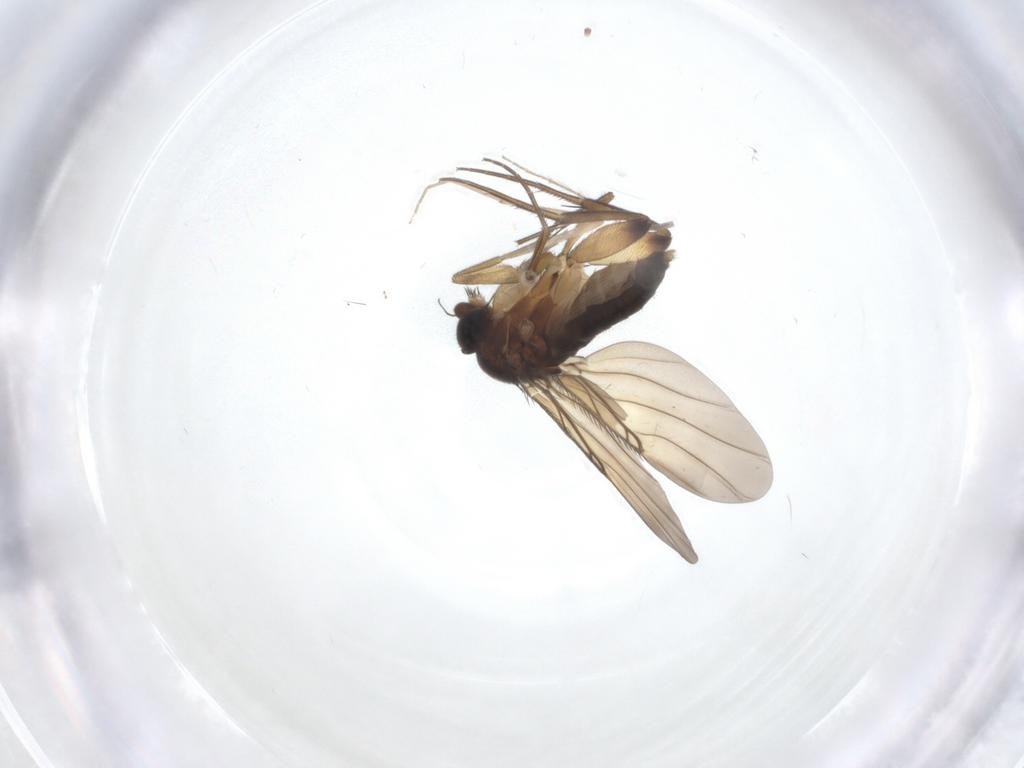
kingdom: Animalia
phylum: Arthropoda
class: Insecta
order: Diptera
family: Chironomidae
